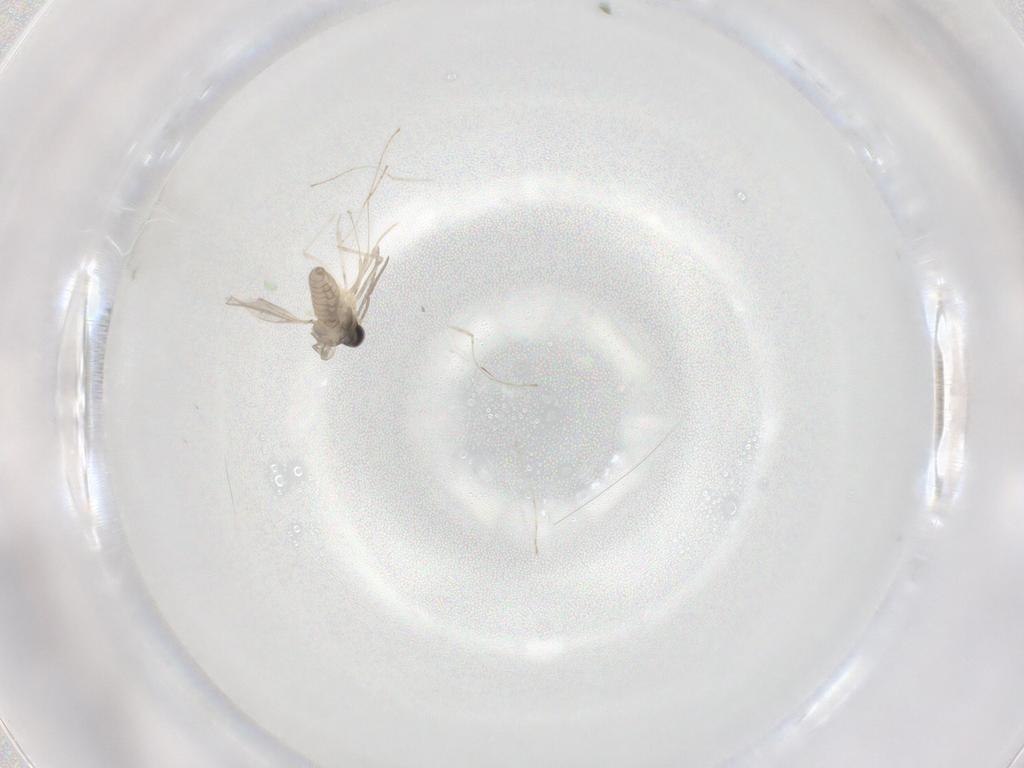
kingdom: Animalia
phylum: Arthropoda
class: Insecta
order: Diptera
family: Cecidomyiidae
